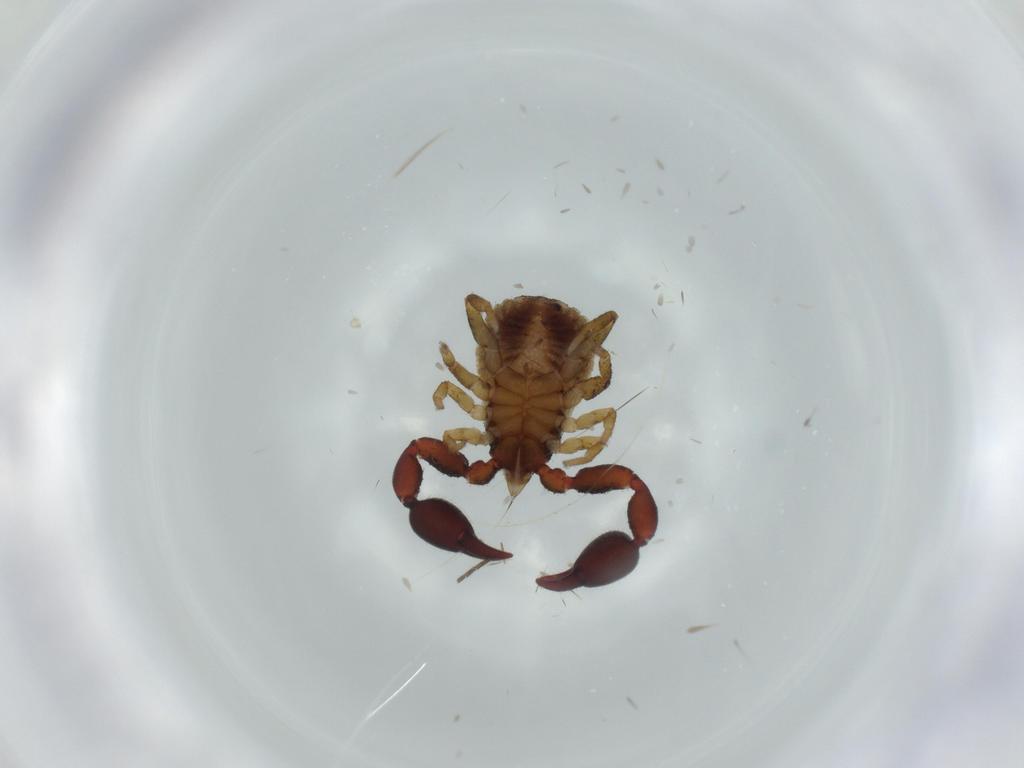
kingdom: Animalia
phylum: Arthropoda
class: Arachnida
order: Pseudoscorpiones
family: Chernetidae
